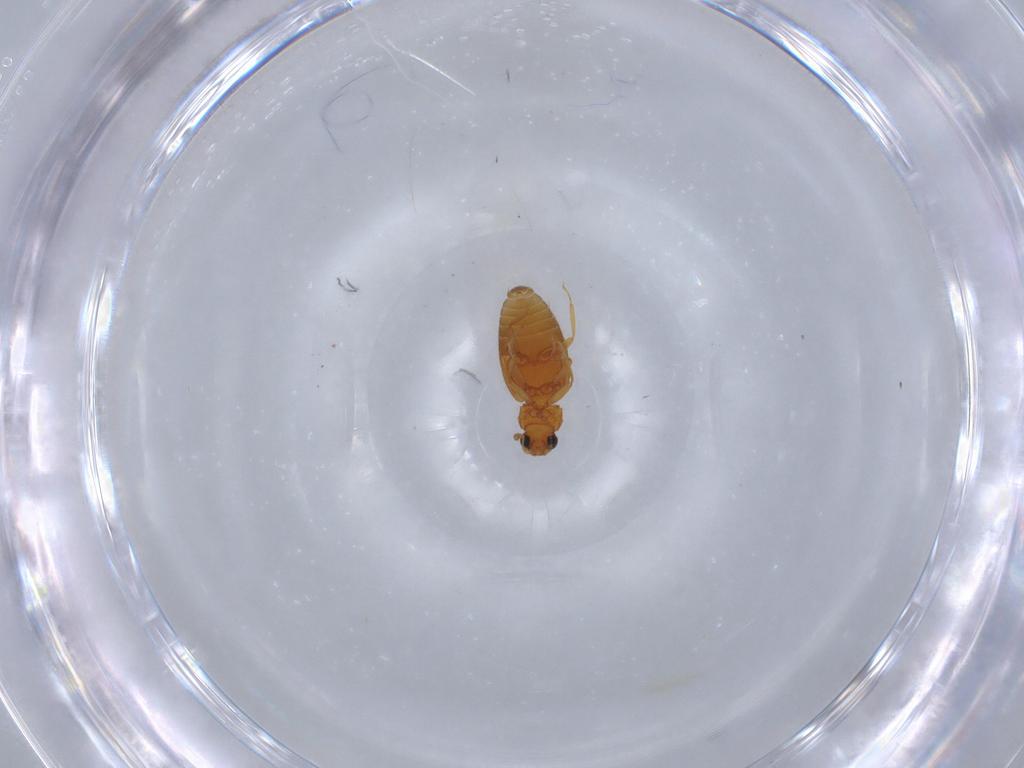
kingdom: Animalia
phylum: Arthropoda
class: Insecta
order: Coleoptera
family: Latridiidae
